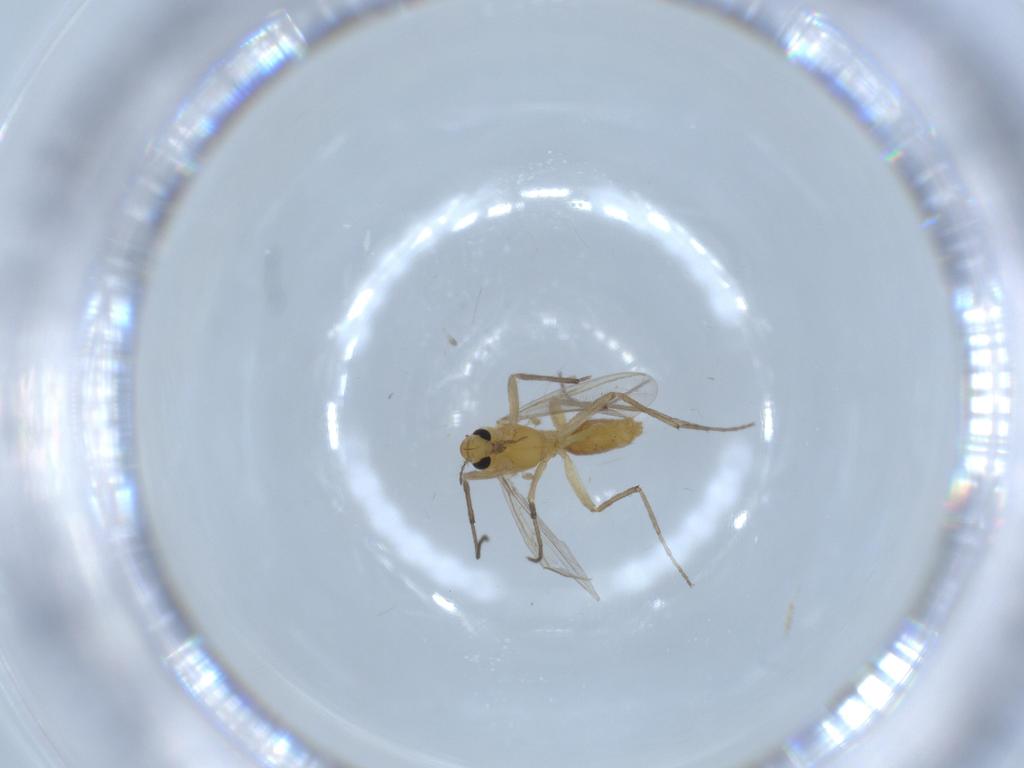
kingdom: Animalia
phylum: Arthropoda
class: Insecta
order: Diptera
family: Chironomidae
